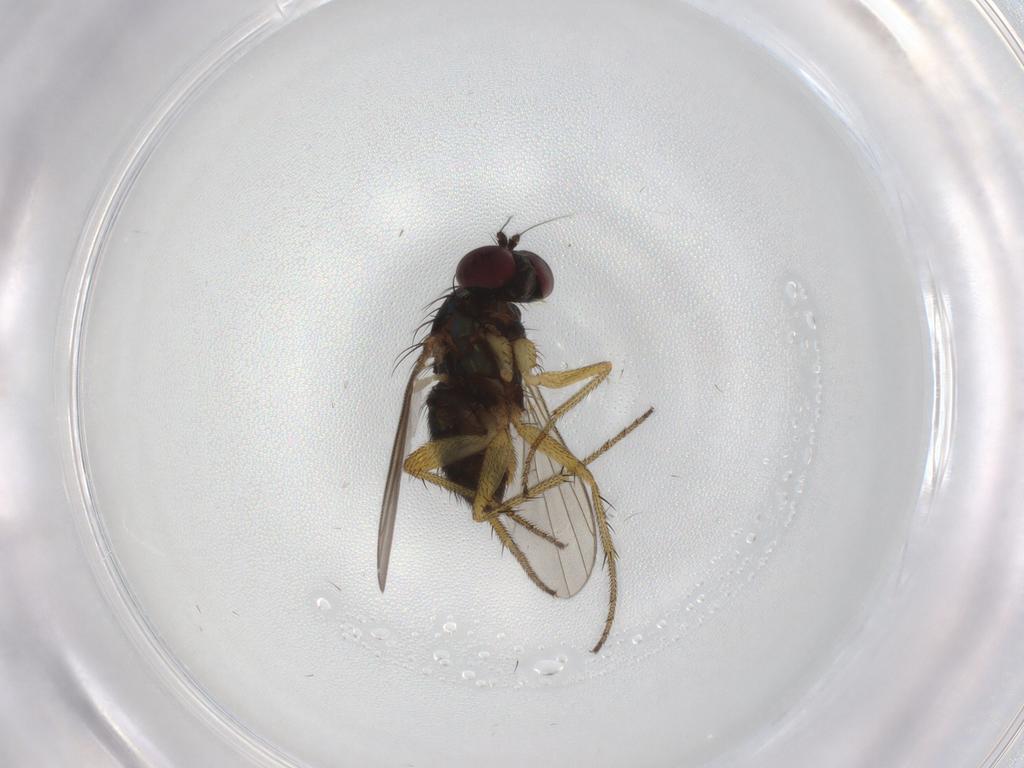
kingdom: Animalia
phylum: Arthropoda
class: Insecta
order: Diptera
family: Dolichopodidae
